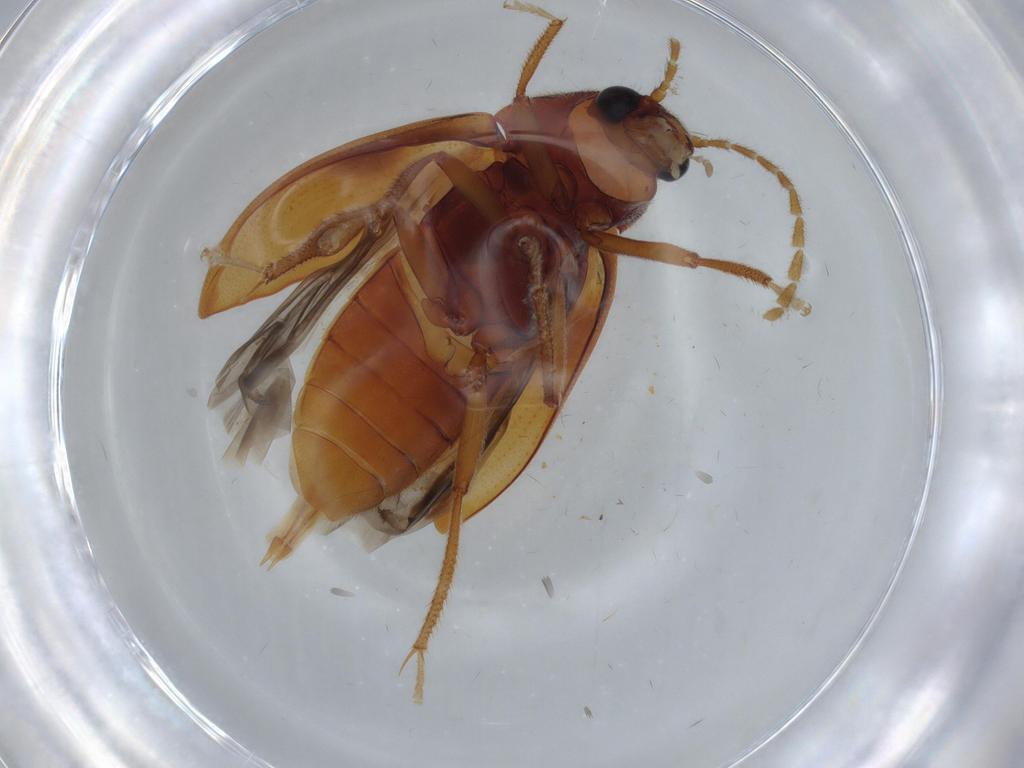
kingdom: Animalia
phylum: Arthropoda
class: Insecta
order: Coleoptera
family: Ptilodactylidae
